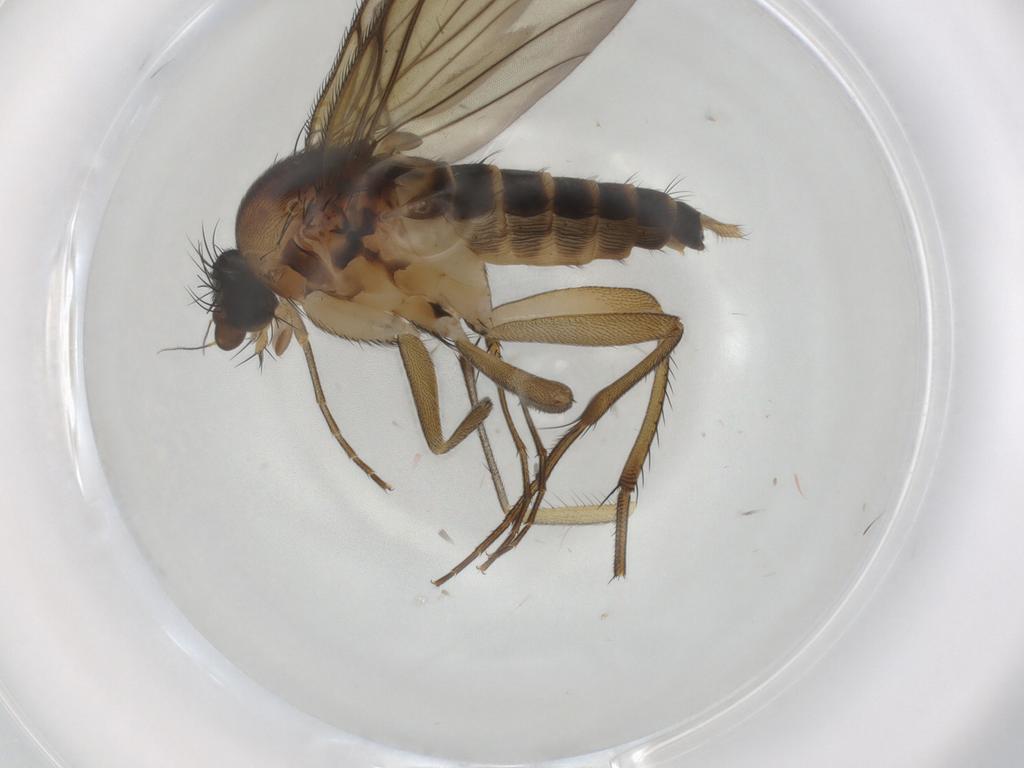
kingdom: Animalia
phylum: Arthropoda
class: Insecta
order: Diptera
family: Phoridae
